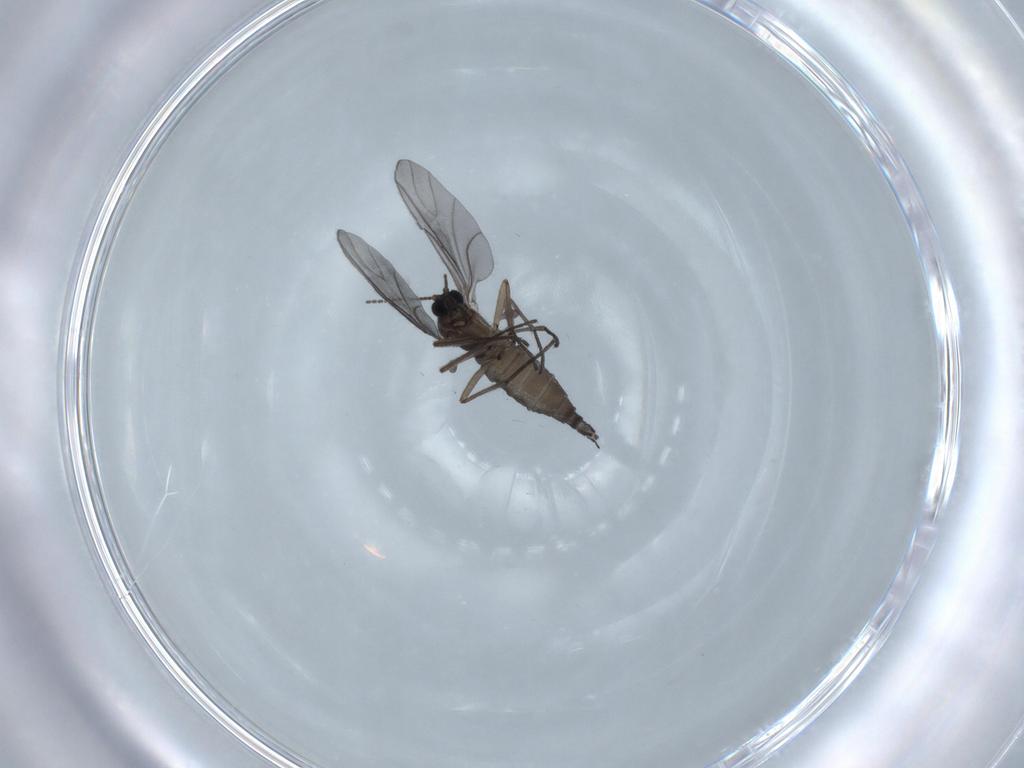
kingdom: Animalia
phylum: Arthropoda
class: Insecta
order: Diptera
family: Sciaridae
